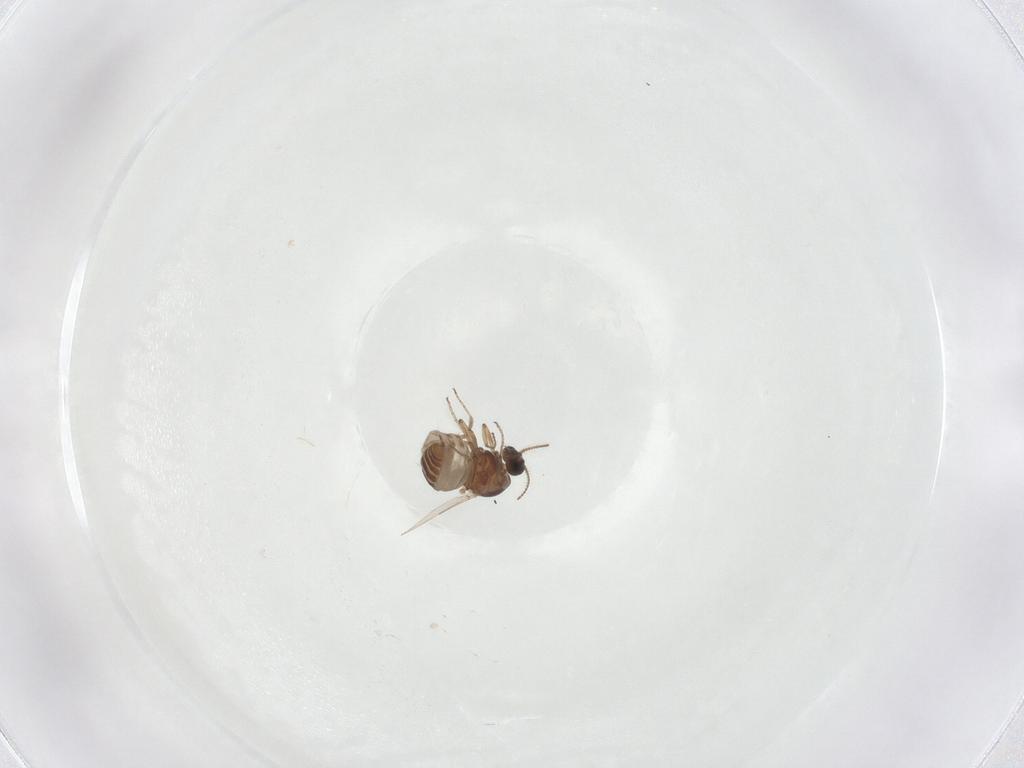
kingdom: Animalia
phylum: Arthropoda
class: Insecta
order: Diptera
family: Ceratopogonidae
